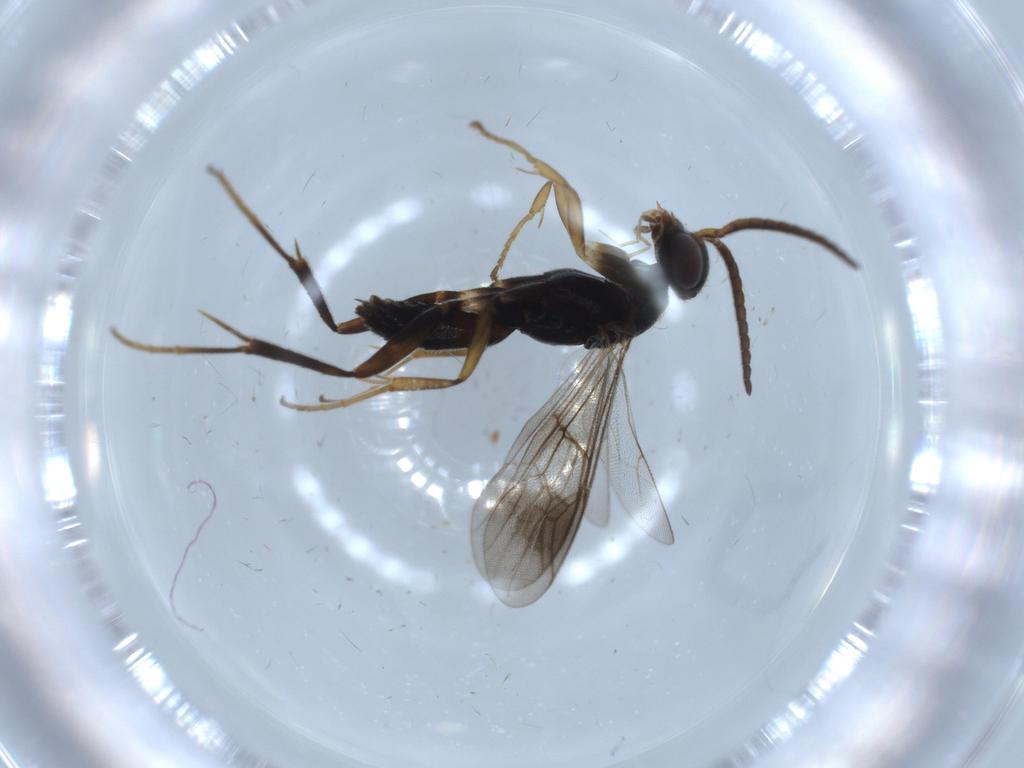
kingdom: Animalia
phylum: Arthropoda
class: Insecta
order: Hymenoptera
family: Pompilidae
